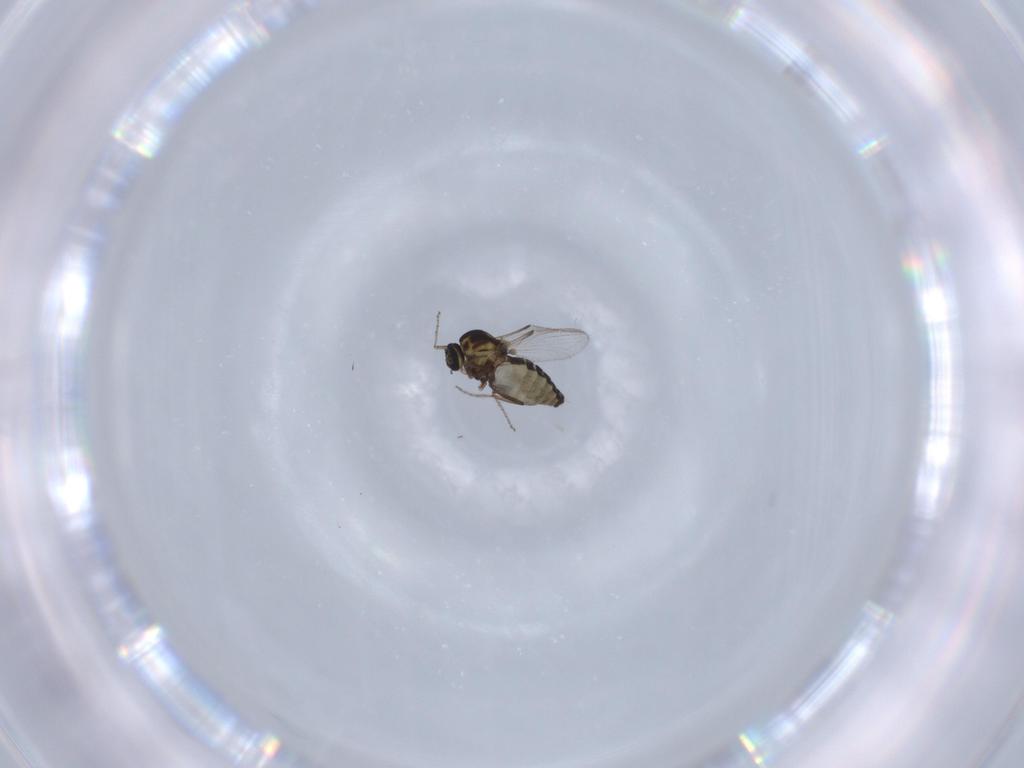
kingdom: Animalia
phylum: Arthropoda
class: Insecta
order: Diptera
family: Ceratopogonidae
